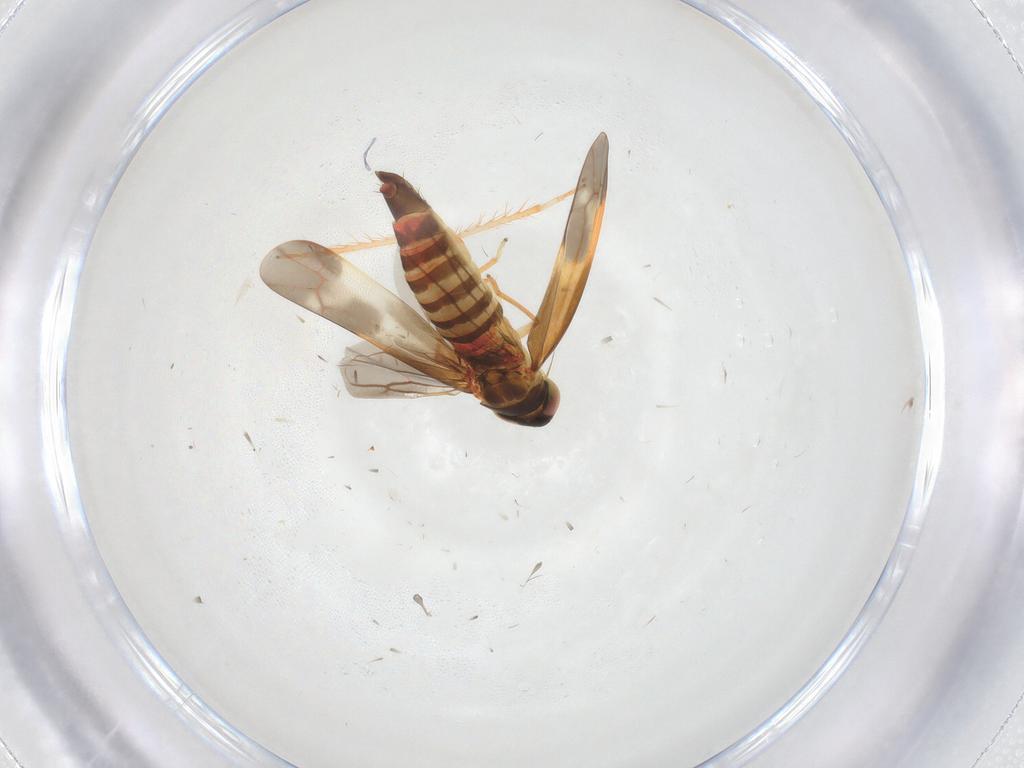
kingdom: Animalia
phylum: Arthropoda
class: Insecta
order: Hemiptera
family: Cicadellidae
